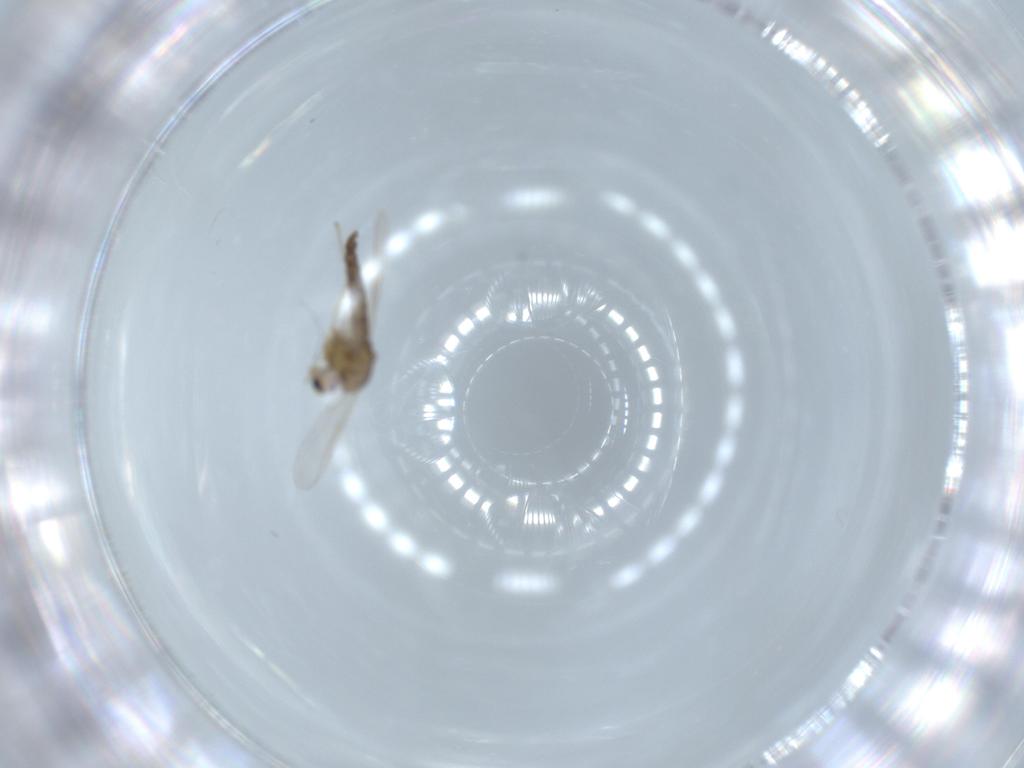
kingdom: Animalia
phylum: Arthropoda
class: Insecta
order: Diptera
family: Chironomidae
